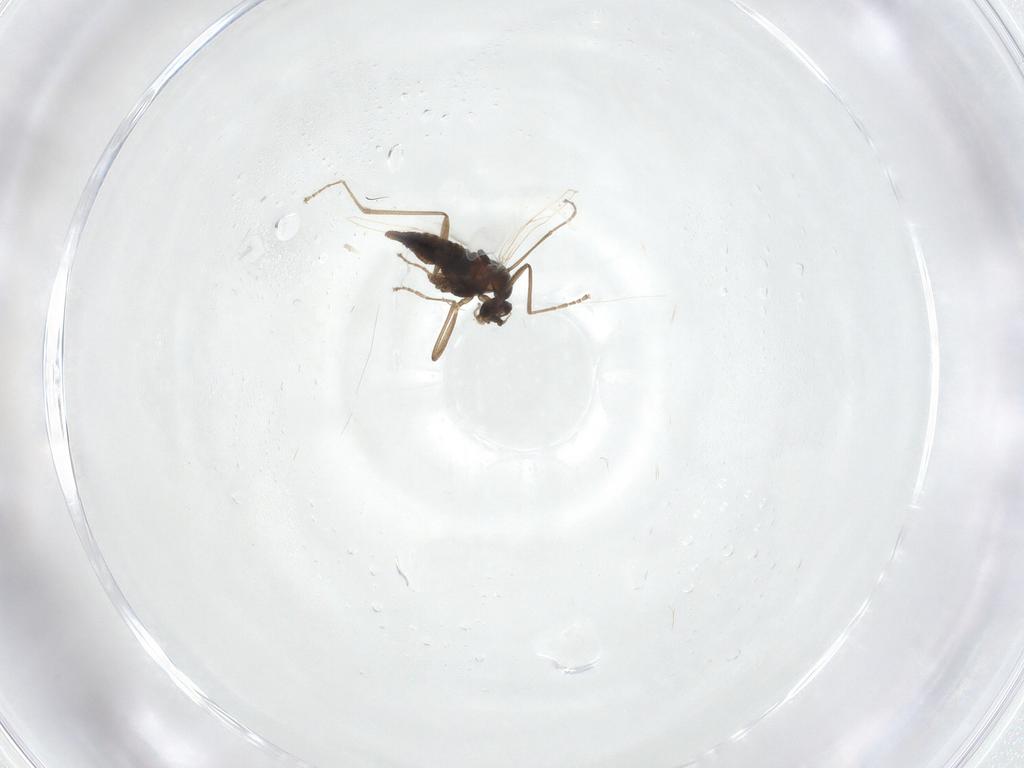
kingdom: Animalia
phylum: Arthropoda
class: Insecta
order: Diptera
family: Cecidomyiidae
